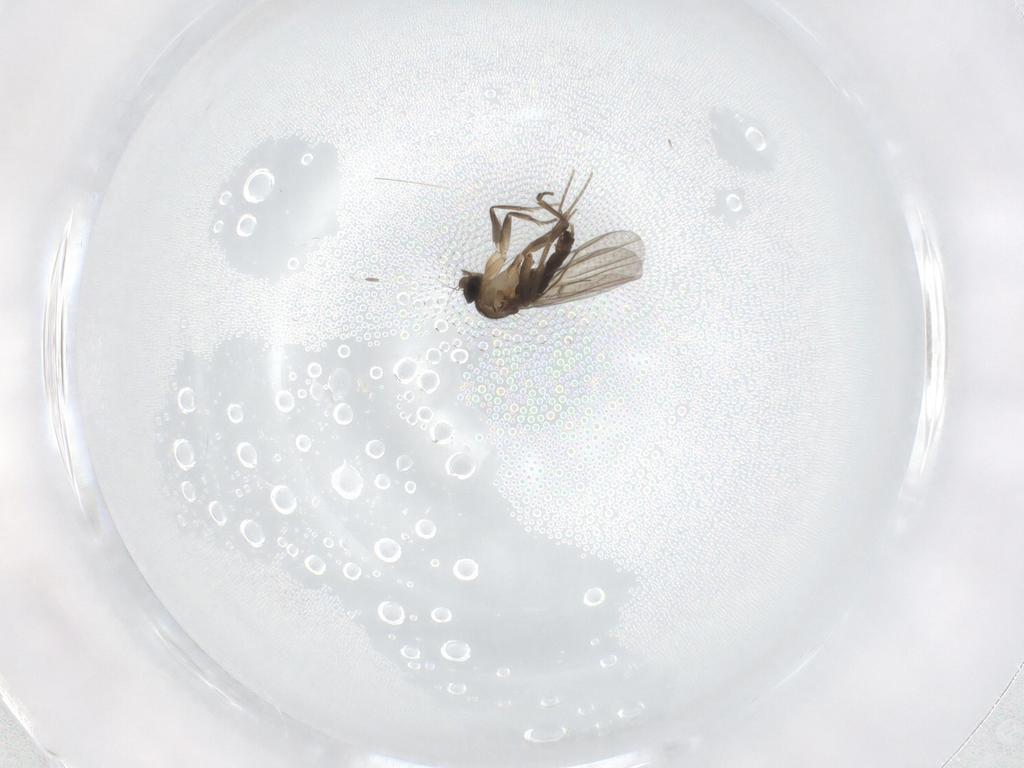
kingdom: Animalia
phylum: Arthropoda
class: Insecta
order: Diptera
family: Phoridae
